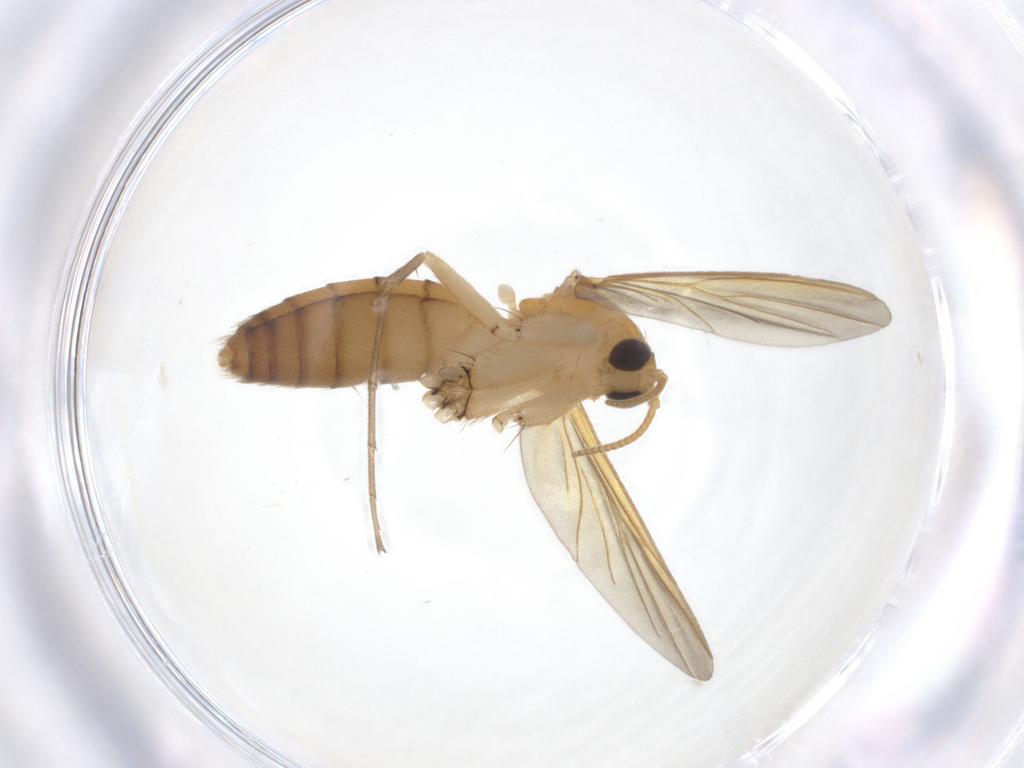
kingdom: Animalia
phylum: Arthropoda
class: Insecta
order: Diptera
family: Mycetophilidae
